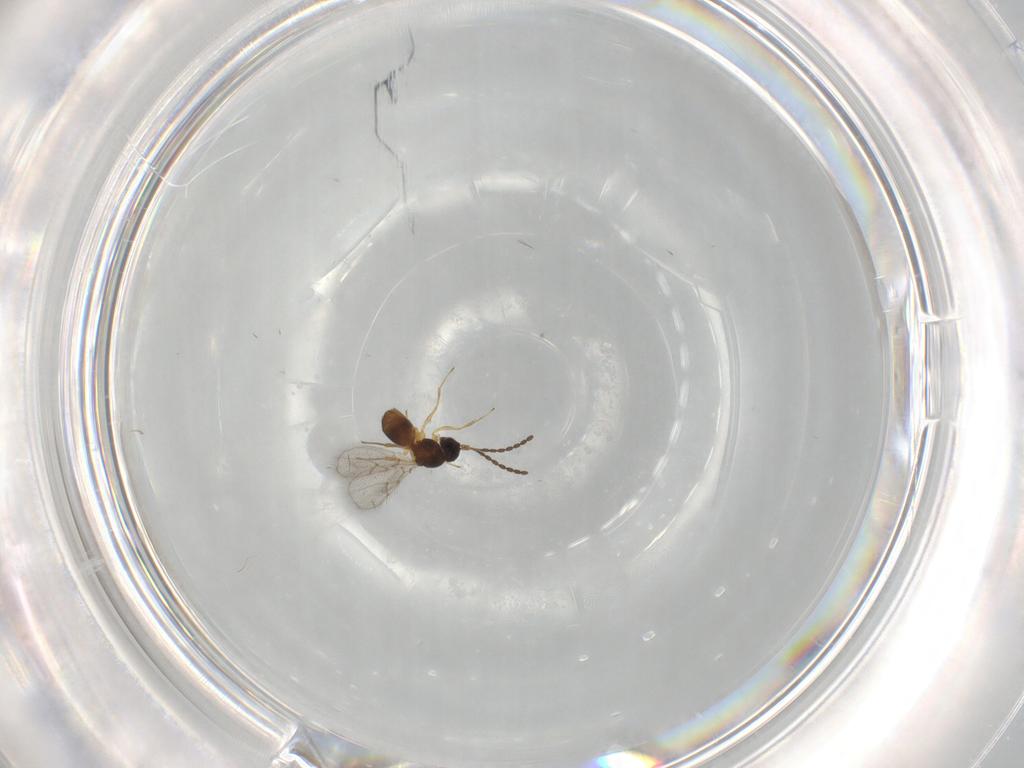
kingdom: Animalia
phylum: Arthropoda
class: Insecta
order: Hymenoptera
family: Figitidae
